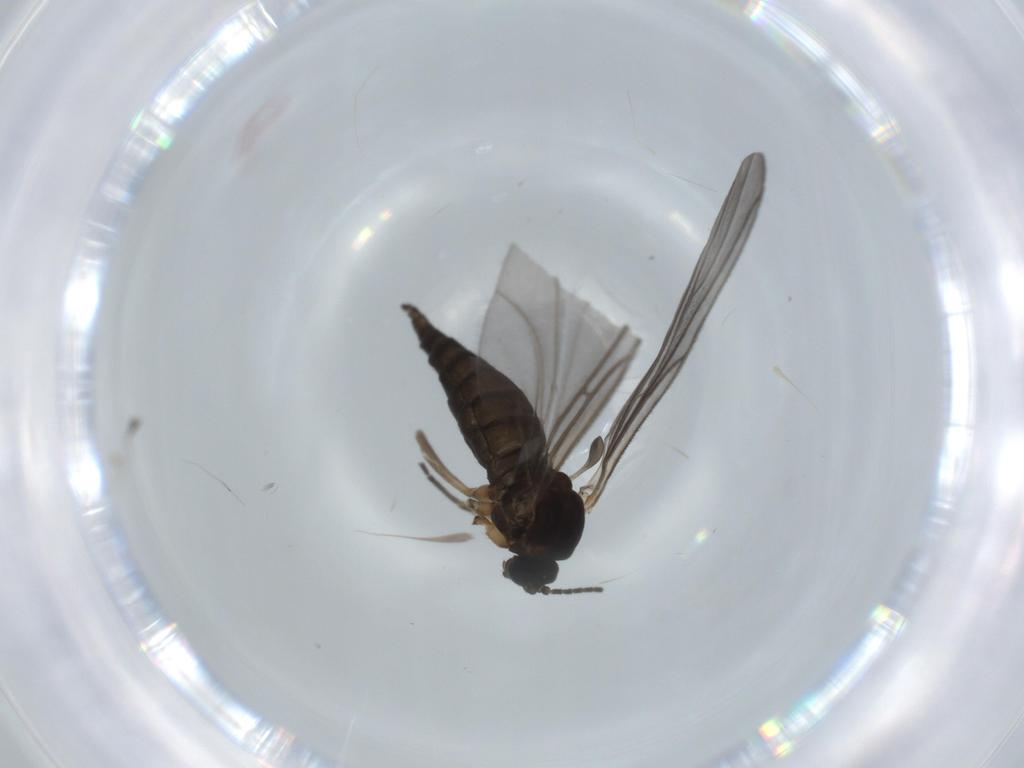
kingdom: Animalia
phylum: Arthropoda
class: Insecta
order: Diptera
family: Sciaridae
